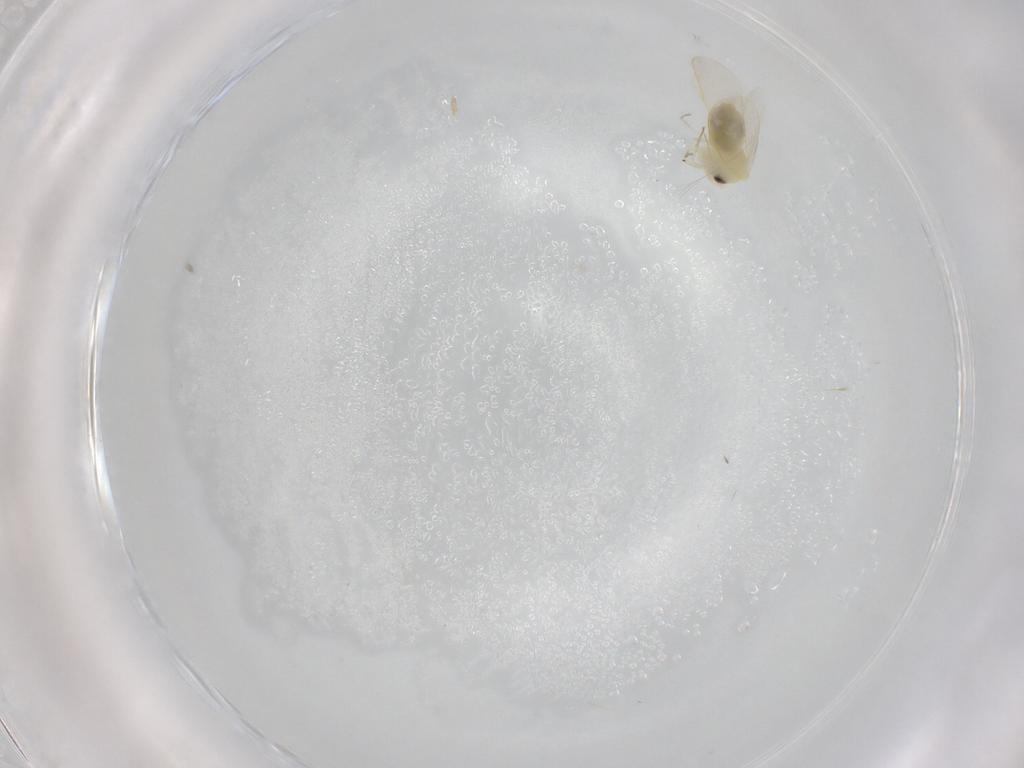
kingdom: Animalia
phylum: Arthropoda
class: Insecta
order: Hemiptera
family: Aleyrodidae
